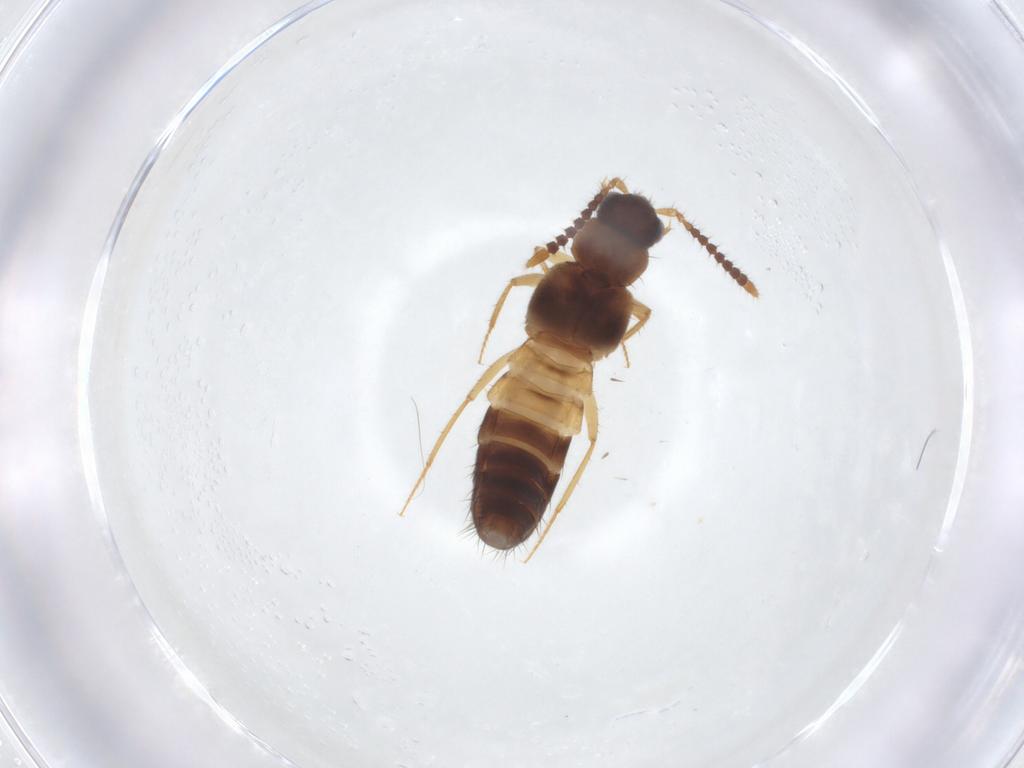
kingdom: Animalia
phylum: Arthropoda
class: Insecta
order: Coleoptera
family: Staphylinidae
